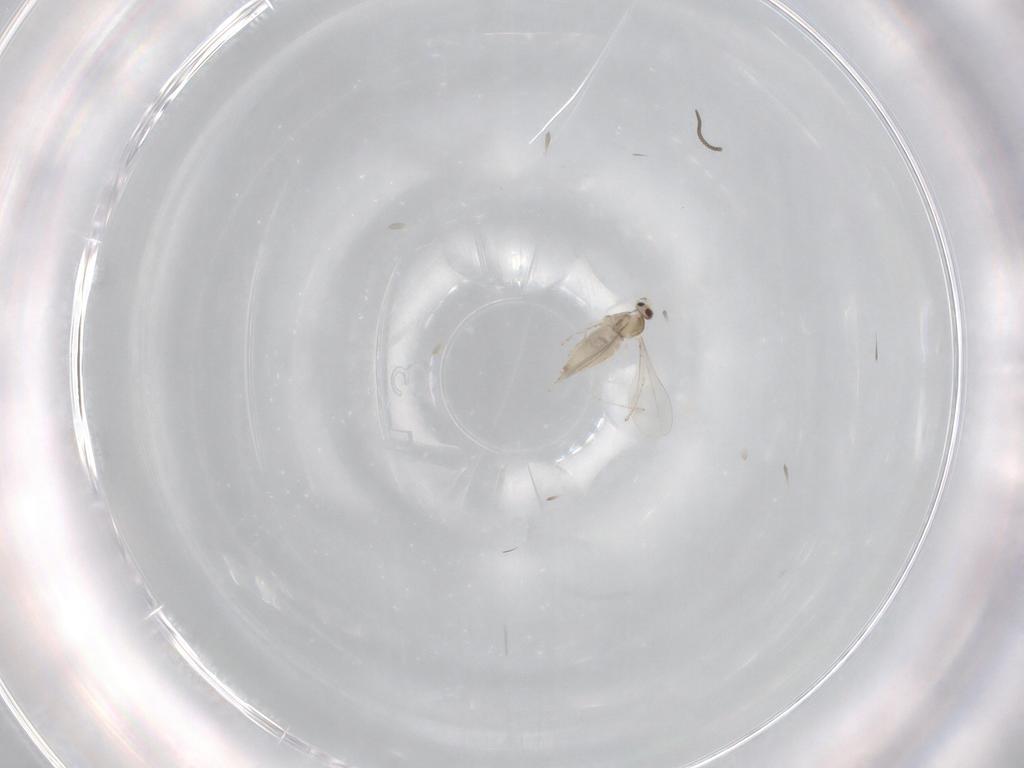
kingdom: Animalia
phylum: Arthropoda
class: Insecta
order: Diptera
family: Cecidomyiidae
